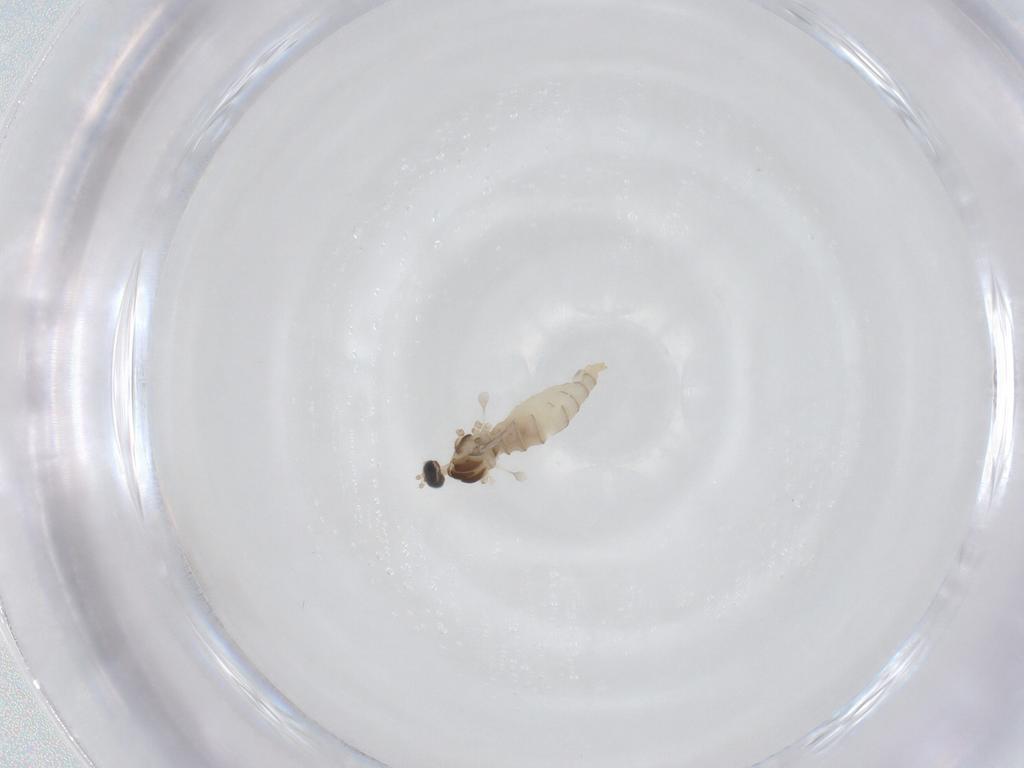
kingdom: Animalia
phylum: Arthropoda
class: Insecta
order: Diptera
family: Cecidomyiidae
